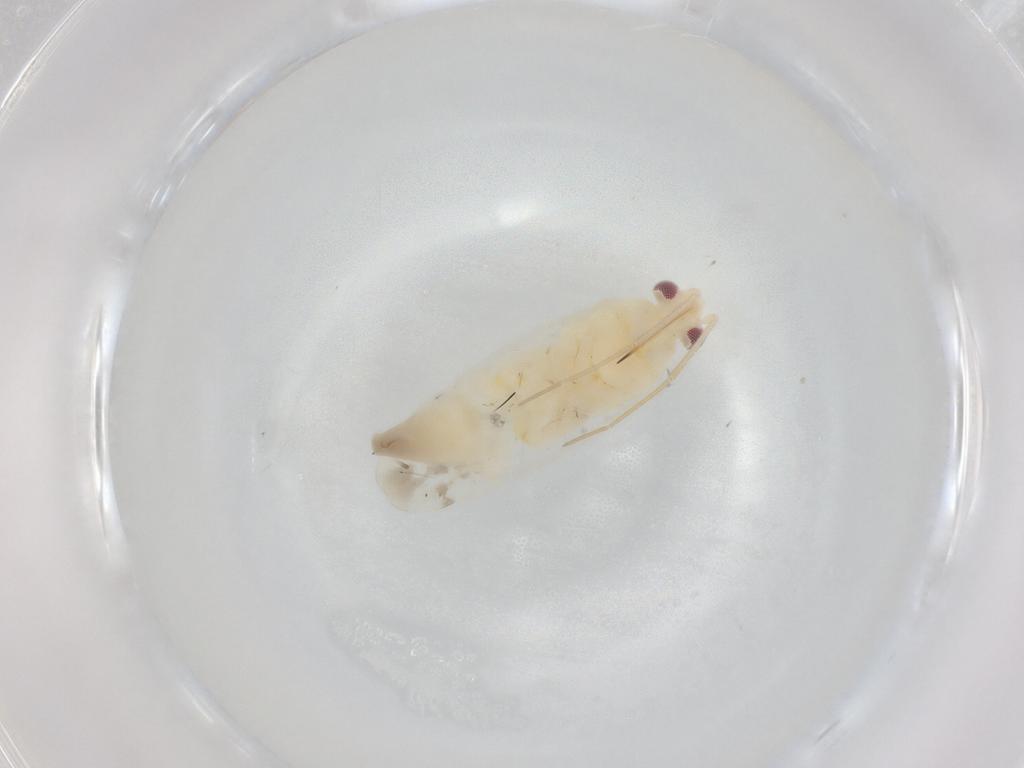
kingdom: Animalia
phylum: Arthropoda
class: Insecta
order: Hemiptera
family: Miridae
